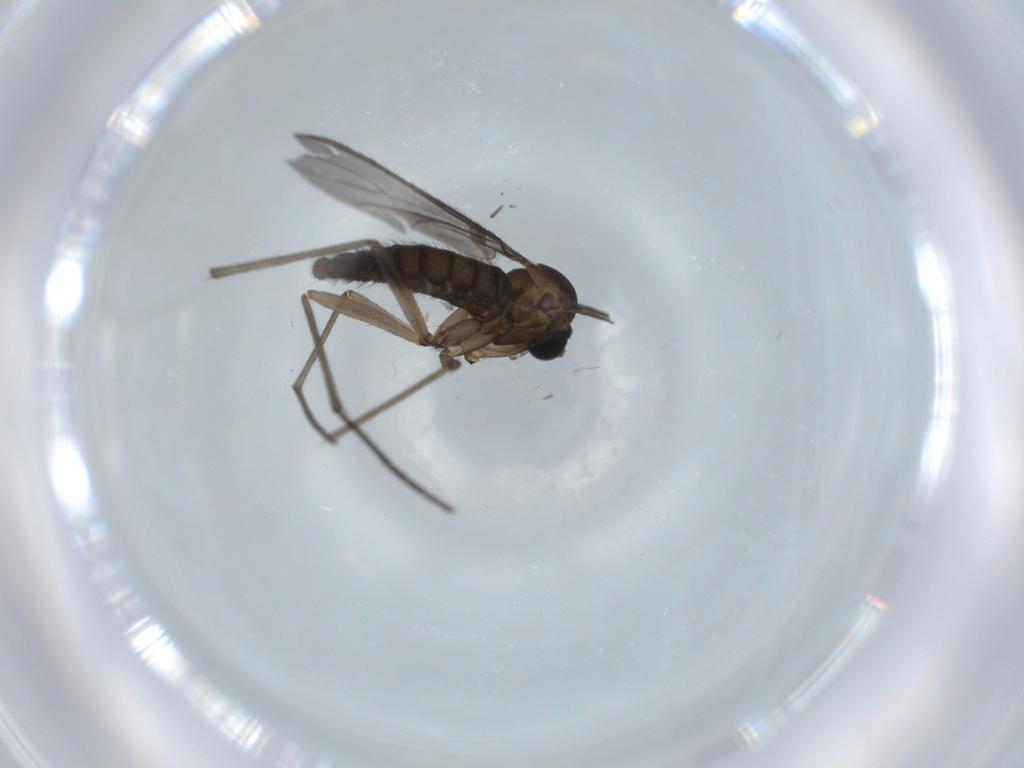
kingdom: Animalia
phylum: Arthropoda
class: Insecta
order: Diptera
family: Sciaridae
